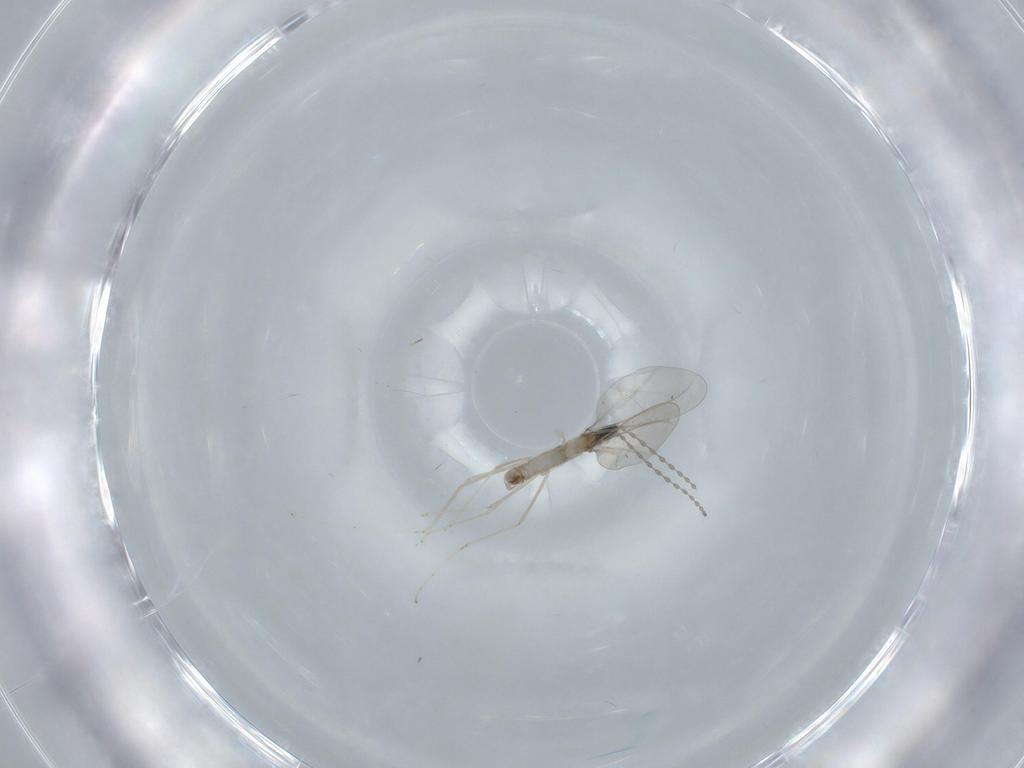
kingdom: Animalia
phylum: Arthropoda
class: Insecta
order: Diptera
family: Cecidomyiidae
